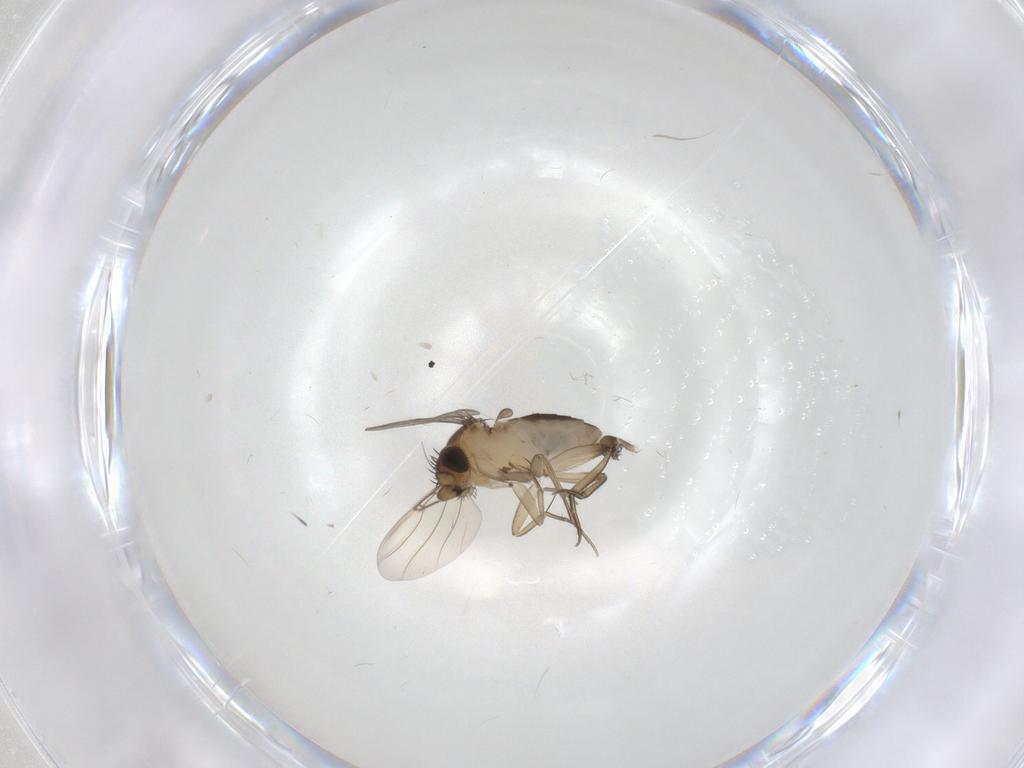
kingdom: Animalia
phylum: Arthropoda
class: Insecta
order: Diptera
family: Phoridae
